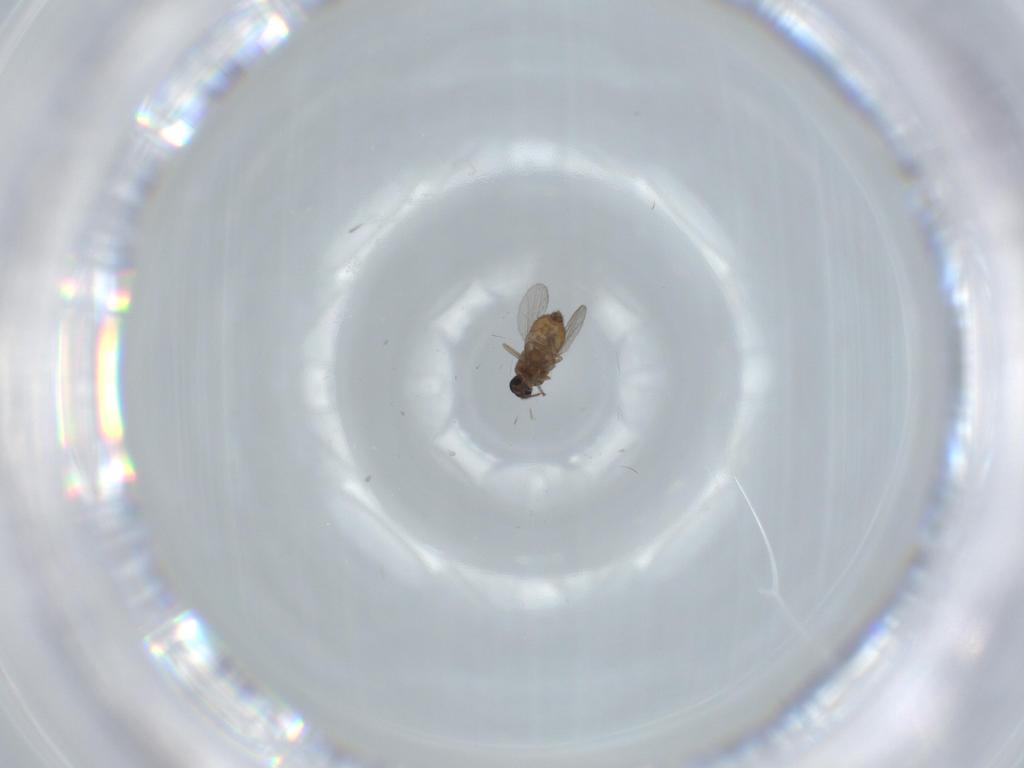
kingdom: Animalia
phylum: Arthropoda
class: Insecta
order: Diptera
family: Ceratopogonidae
